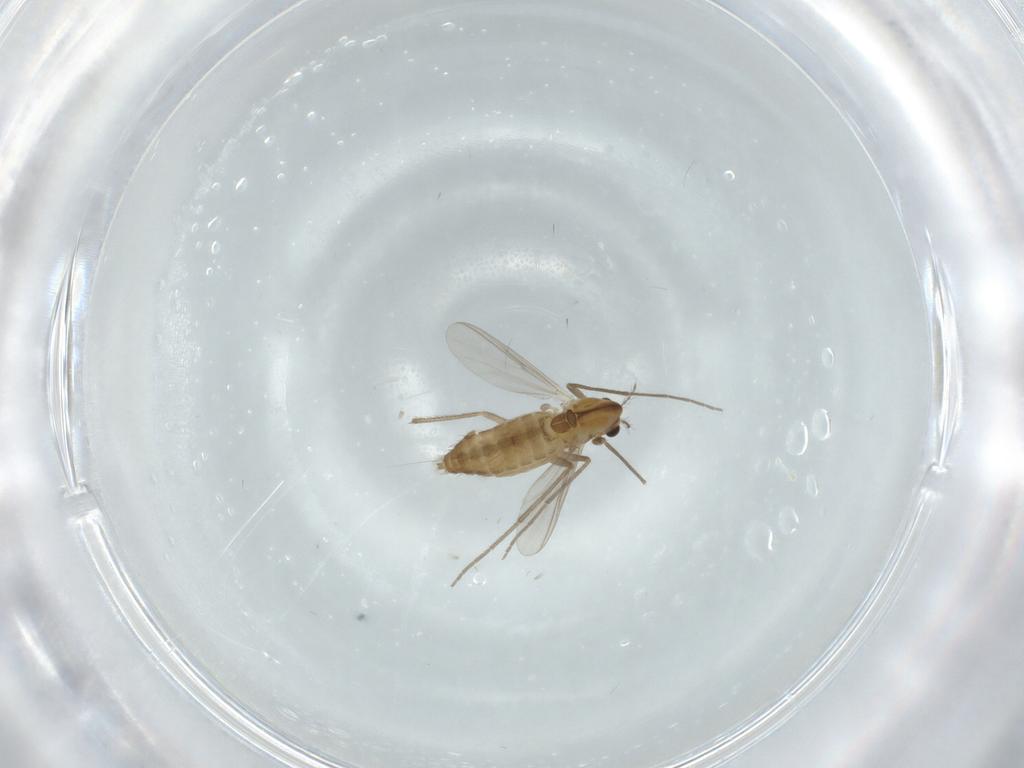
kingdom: Animalia
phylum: Arthropoda
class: Insecta
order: Diptera
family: Chironomidae
